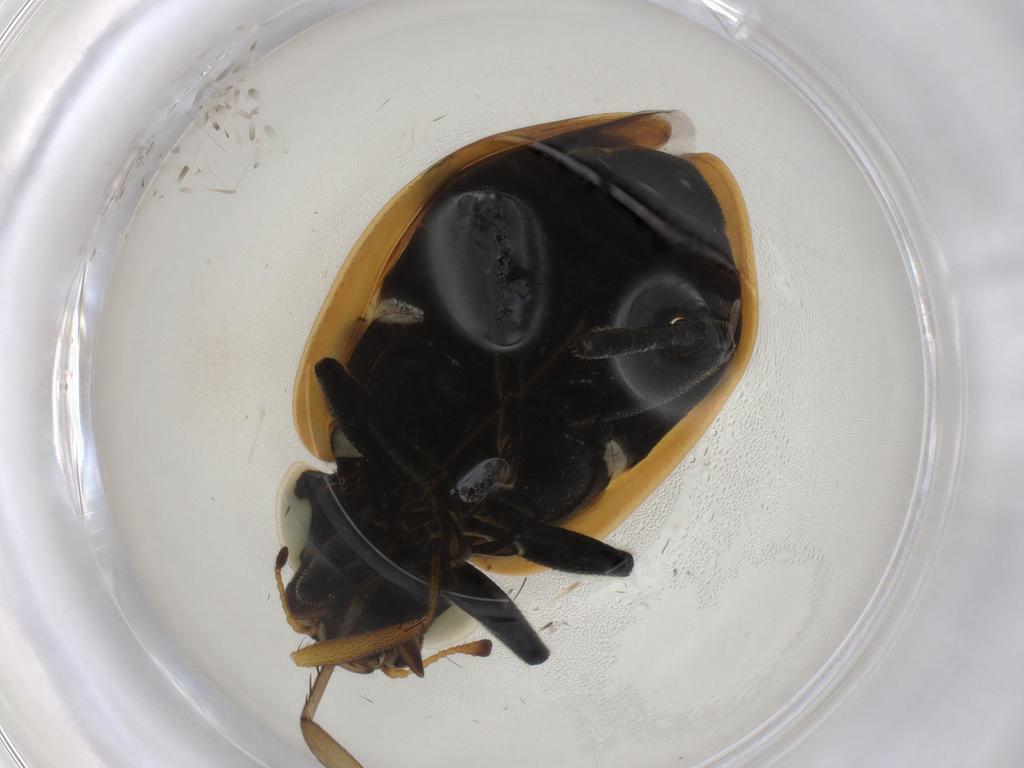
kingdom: Animalia
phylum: Arthropoda
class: Insecta
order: Coleoptera
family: Coccinellidae
